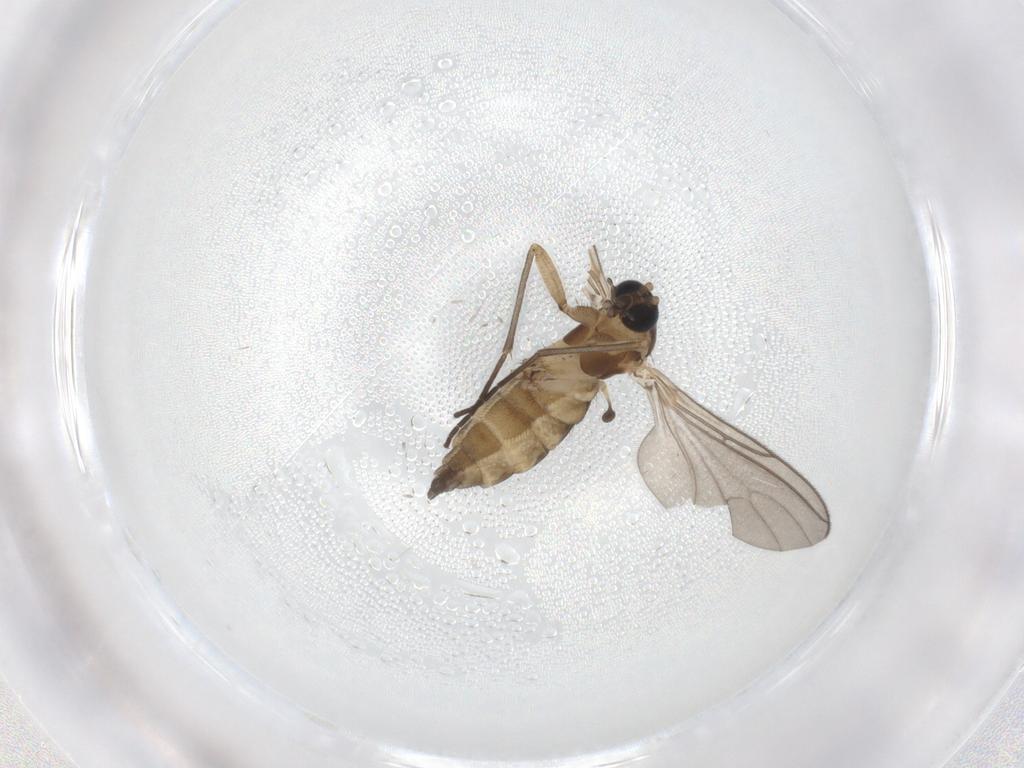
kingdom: Animalia
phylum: Arthropoda
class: Insecta
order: Diptera
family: Sciaridae
